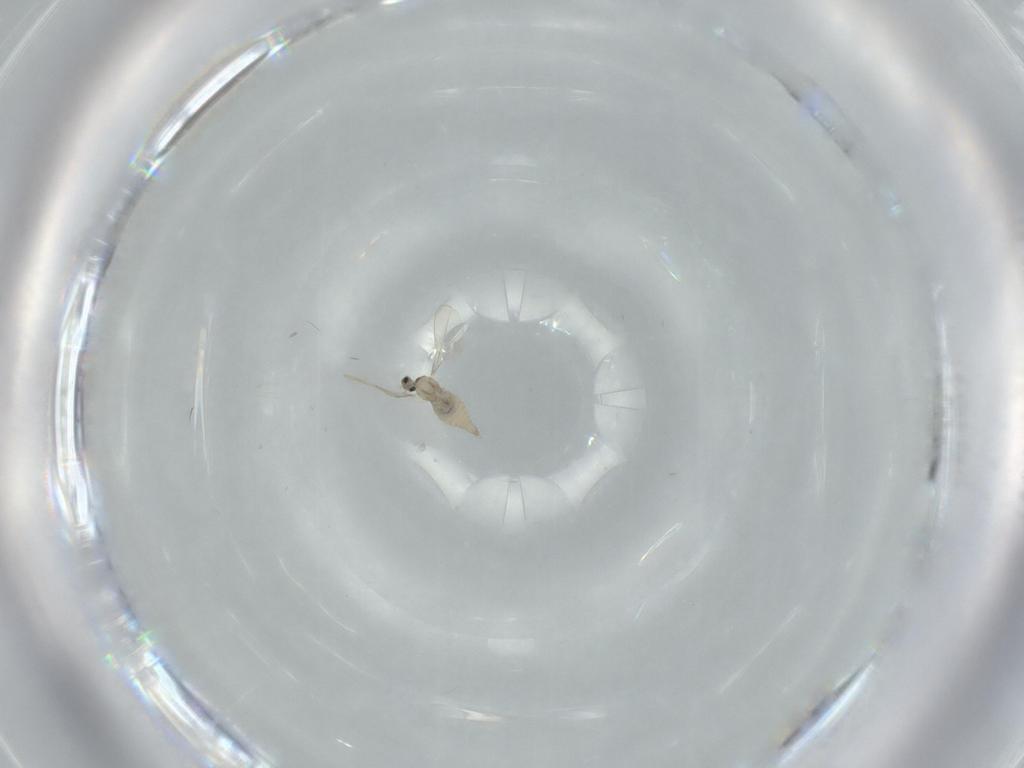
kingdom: Animalia
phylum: Arthropoda
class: Insecta
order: Diptera
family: Cecidomyiidae
